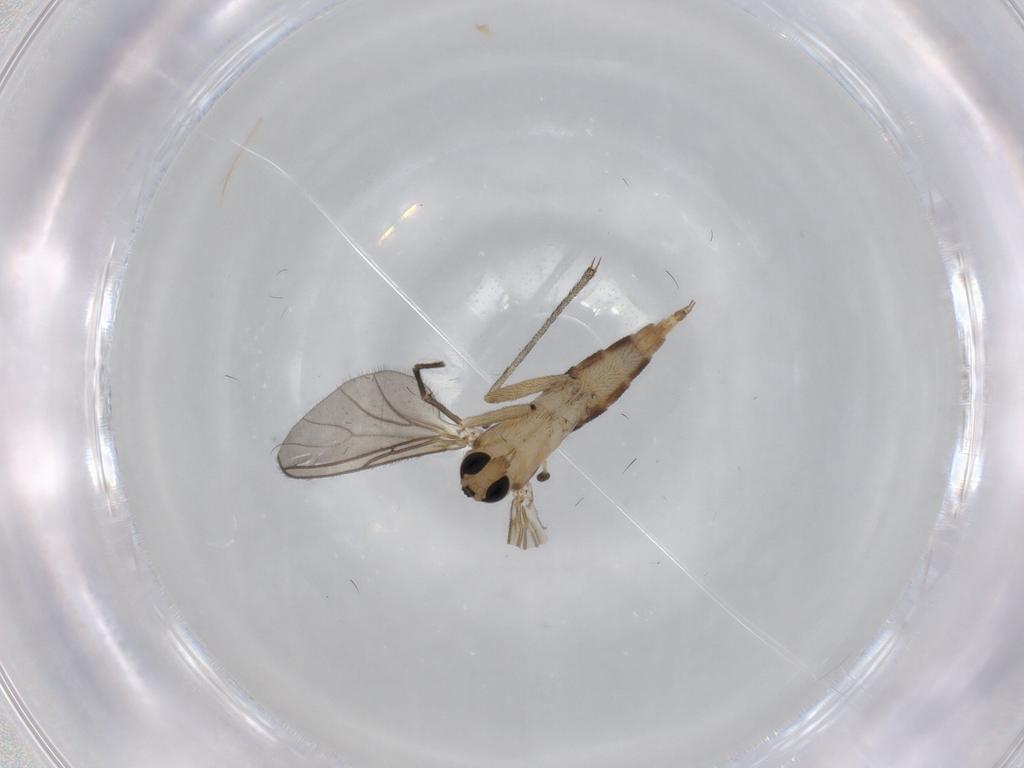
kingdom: Animalia
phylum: Arthropoda
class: Insecta
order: Diptera
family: Sciaridae
